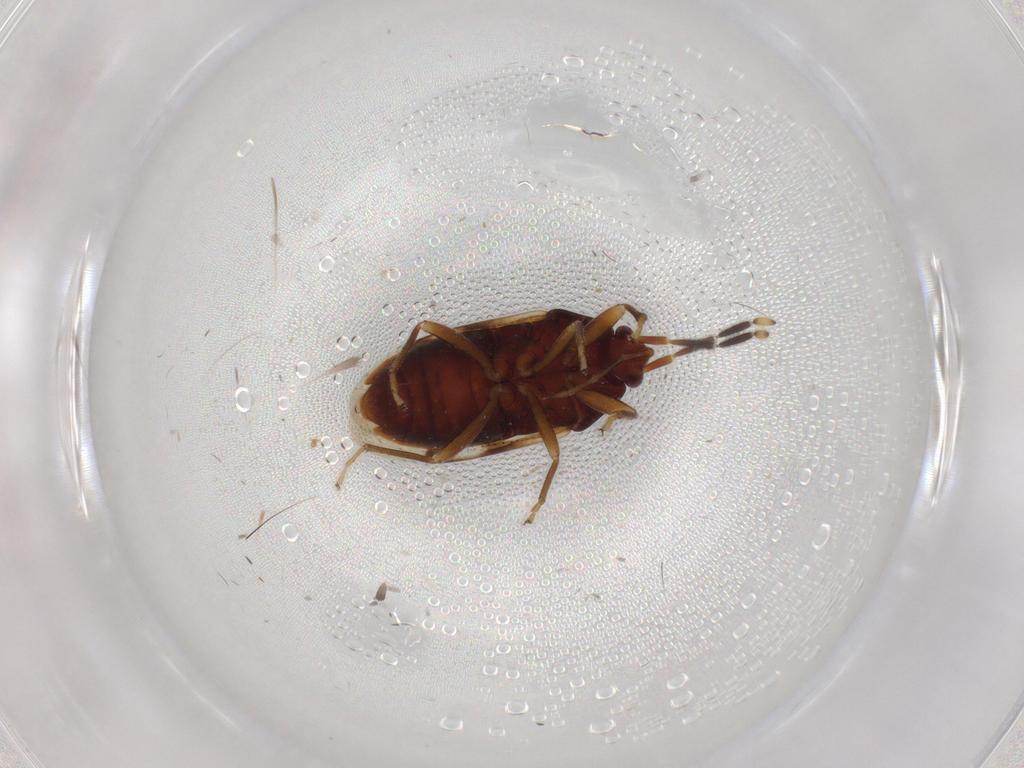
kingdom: Animalia
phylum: Arthropoda
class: Insecta
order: Hemiptera
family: Rhyparochromidae
